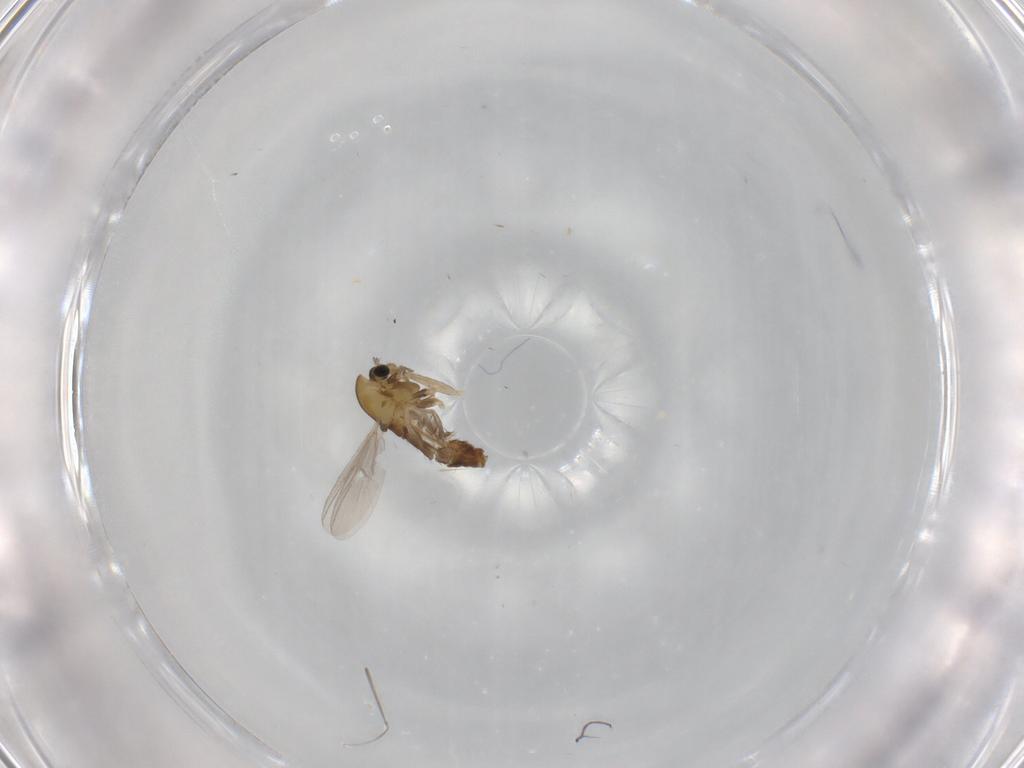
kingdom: Animalia
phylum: Arthropoda
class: Insecta
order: Diptera
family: Chironomidae
